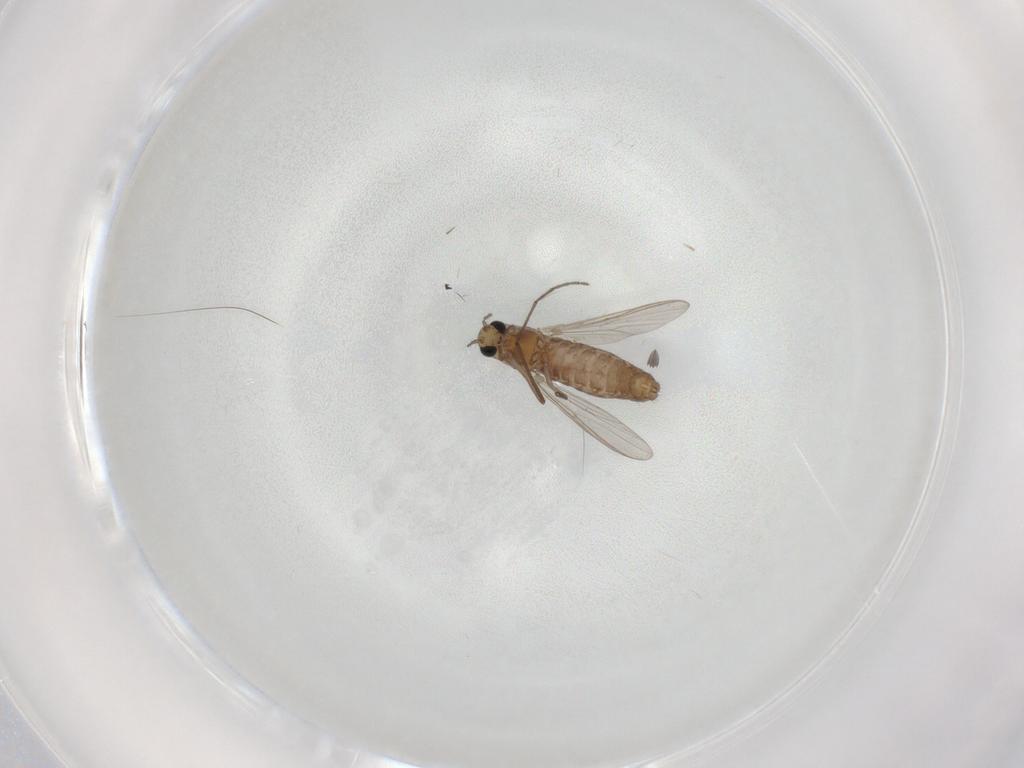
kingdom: Animalia
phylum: Arthropoda
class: Insecta
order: Diptera
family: Chironomidae
